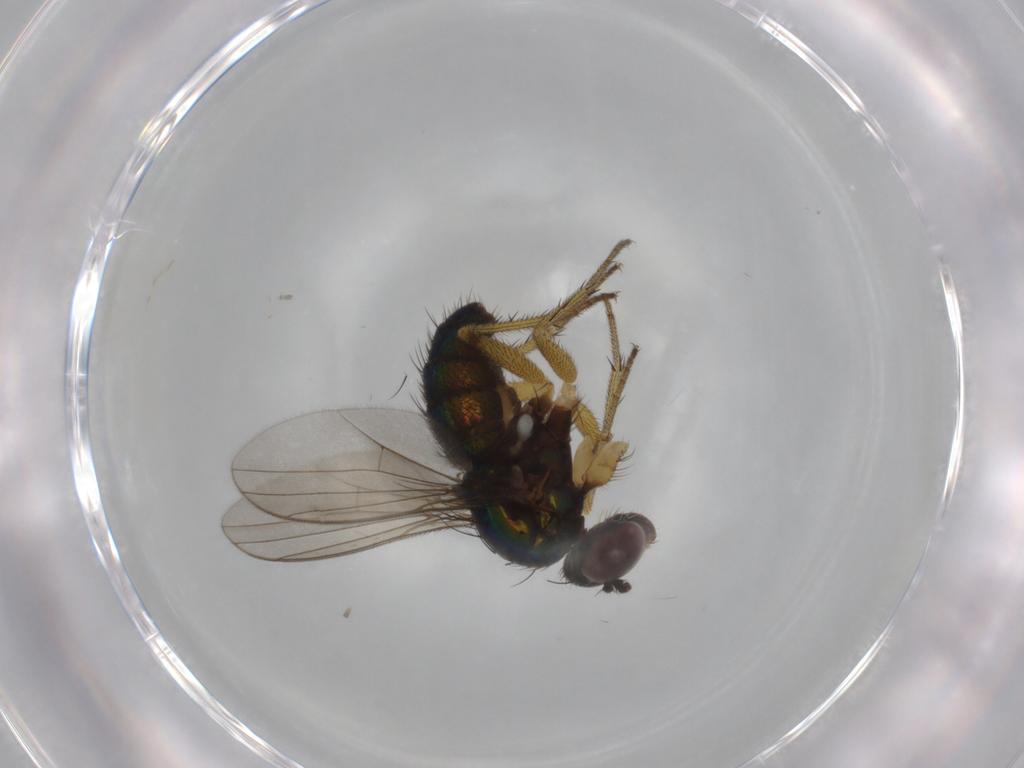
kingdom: Animalia
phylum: Arthropoda
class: Insecta
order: Diptera
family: Dolichopodidae
